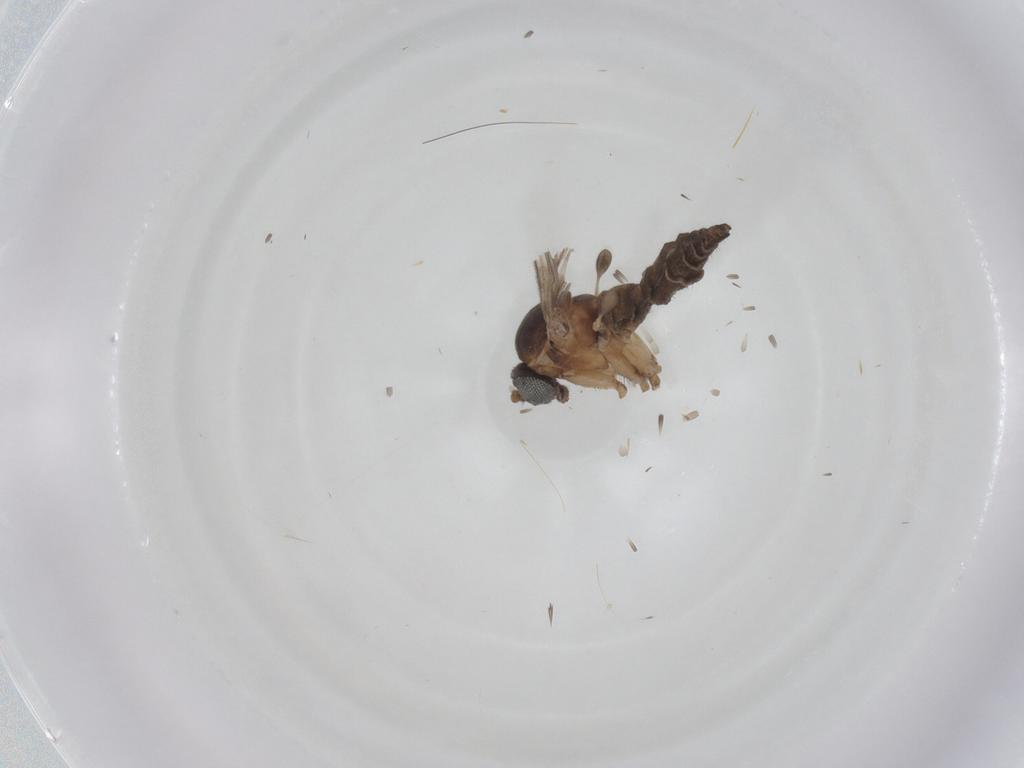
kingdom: Animalia
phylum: Arthropoda
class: Insecta
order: Diptera
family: Sciaridae
